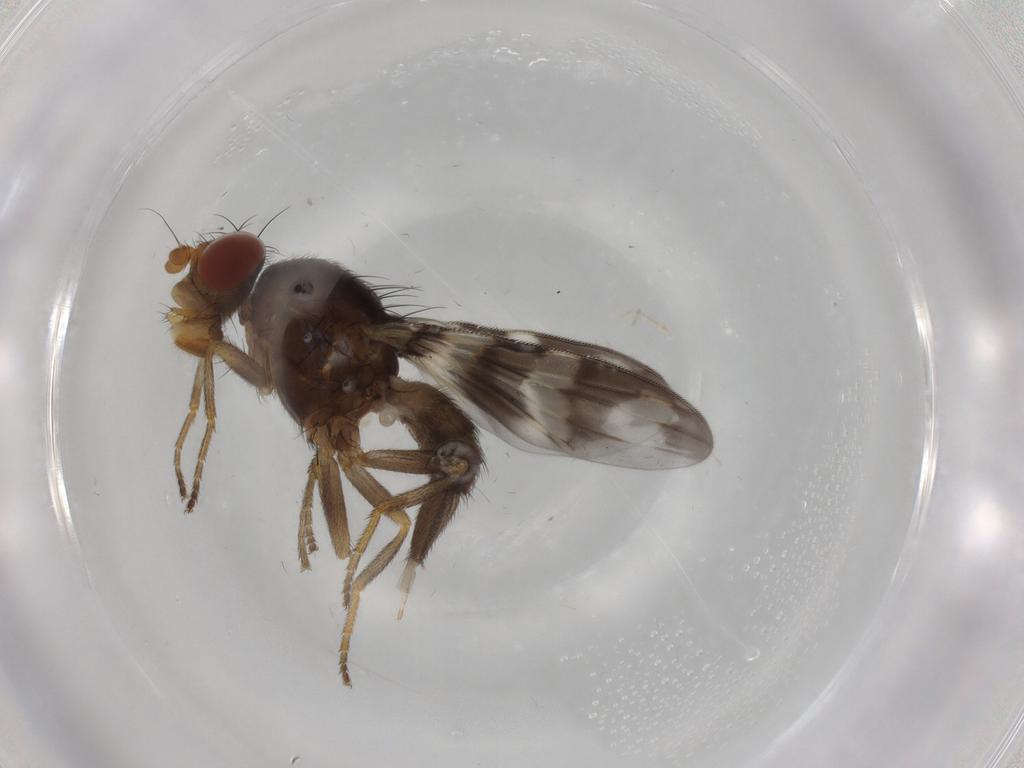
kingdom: Animalia
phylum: Arthropoda
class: Insecta
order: Diptera
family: Ulidiidae
